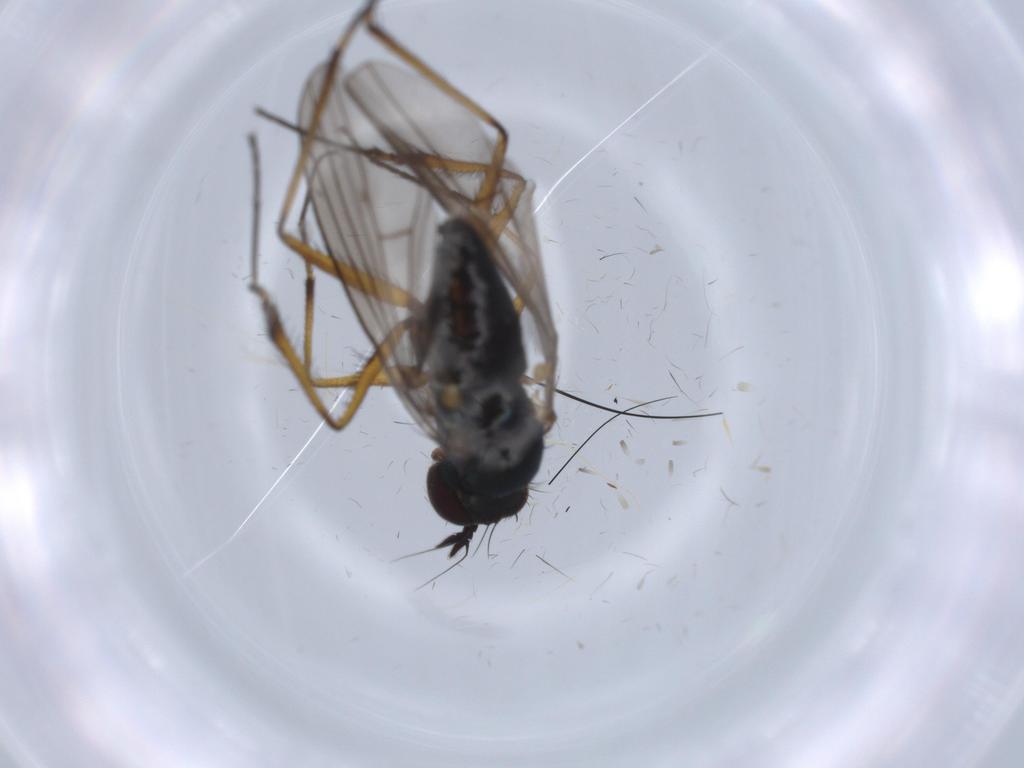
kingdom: Animalia
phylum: Arthropoda
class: Insecta
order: Diptera
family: Dolichopodidae
